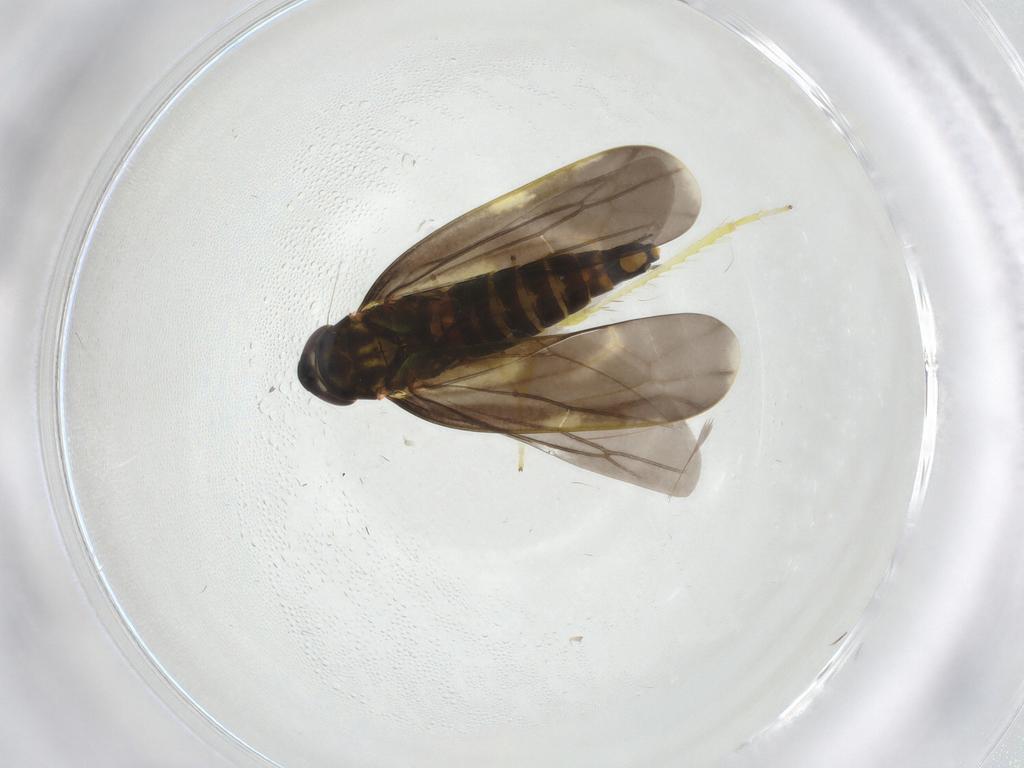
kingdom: Animalia
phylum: Arthropoda
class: Insecta
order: Hemiptera
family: Cicadellidae
